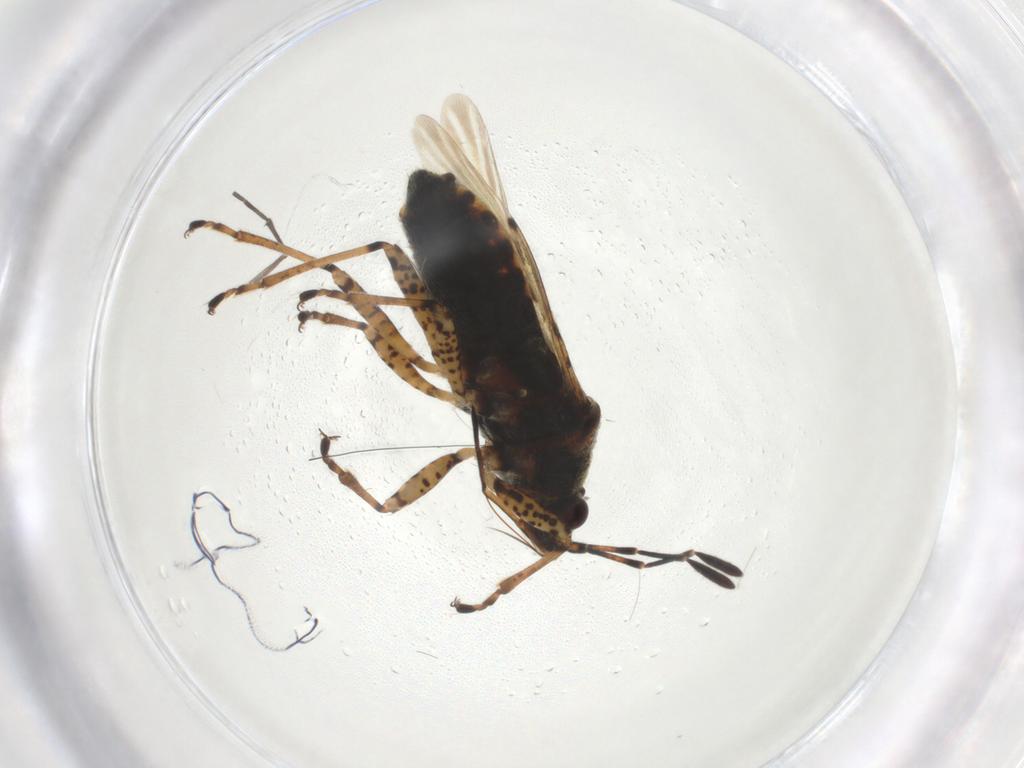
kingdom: Animalia
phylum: Arthropoda
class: Insecta
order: Hemiptera
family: Lygaeidae
